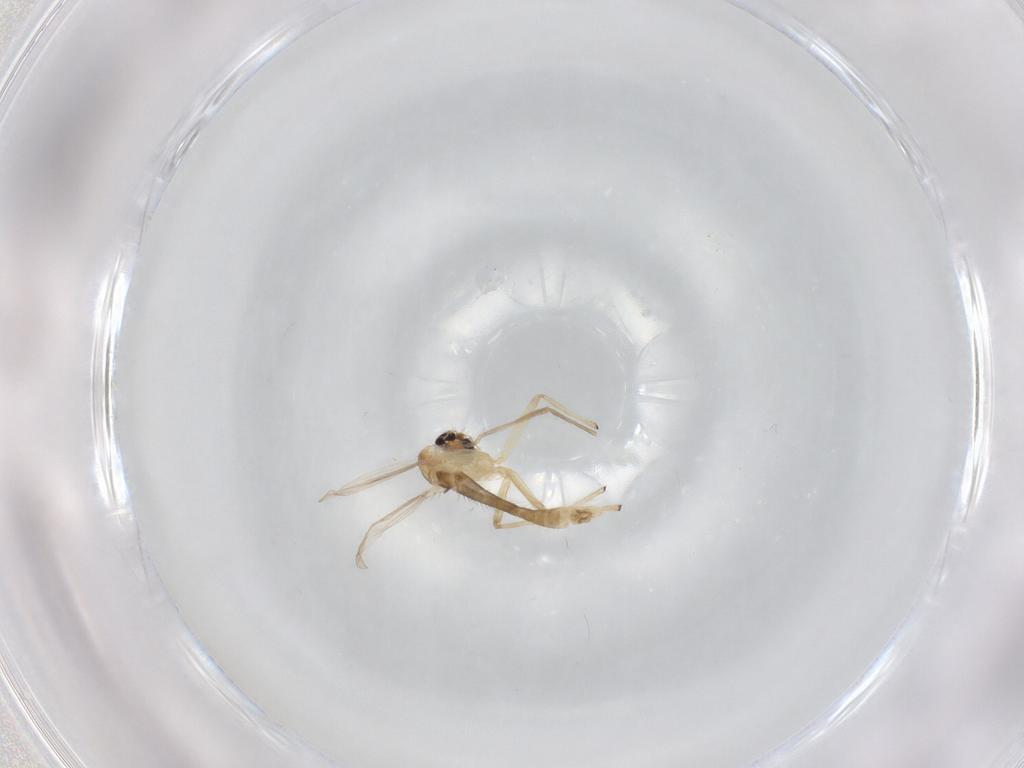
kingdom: Animalia
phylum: Arthropoda
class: Insecta
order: Diptera
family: Chironomidae
